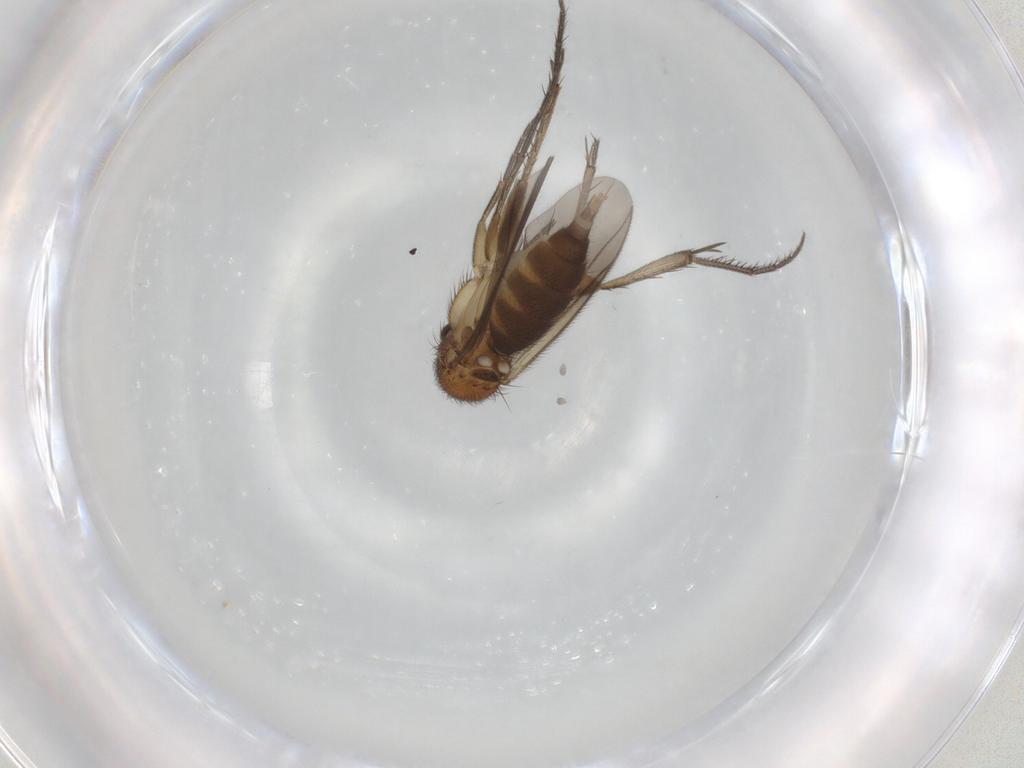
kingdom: Animalia
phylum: Arthropoda
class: Insecta
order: Diptera
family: Mycetophilidae
